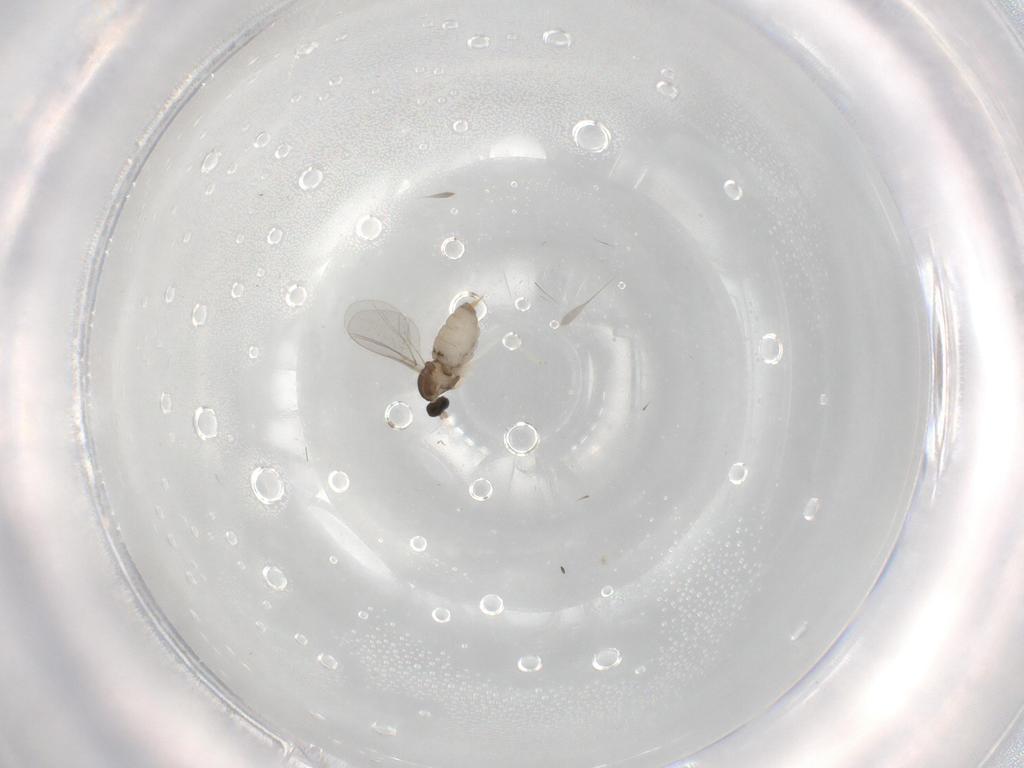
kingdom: Animalia
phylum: Arthropoda
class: Insecta
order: Diptera
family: Cecidomyiidae
